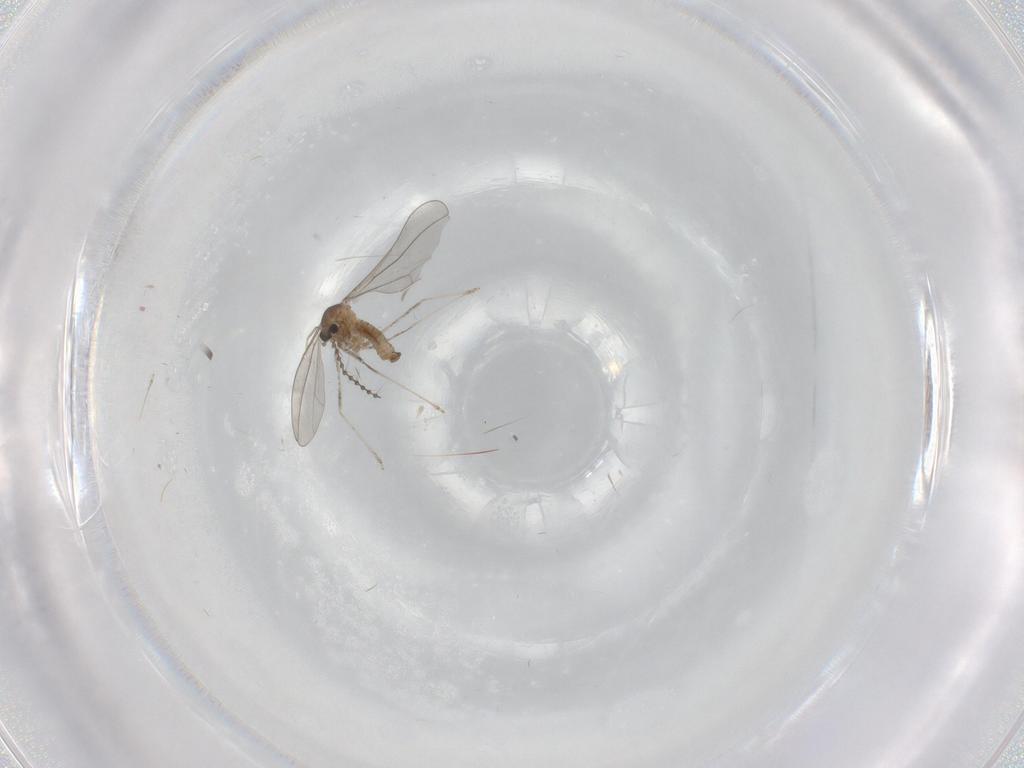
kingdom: Animalia
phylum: Arthropoda
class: Insecta
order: Diptera
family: Cecidomyiidae
